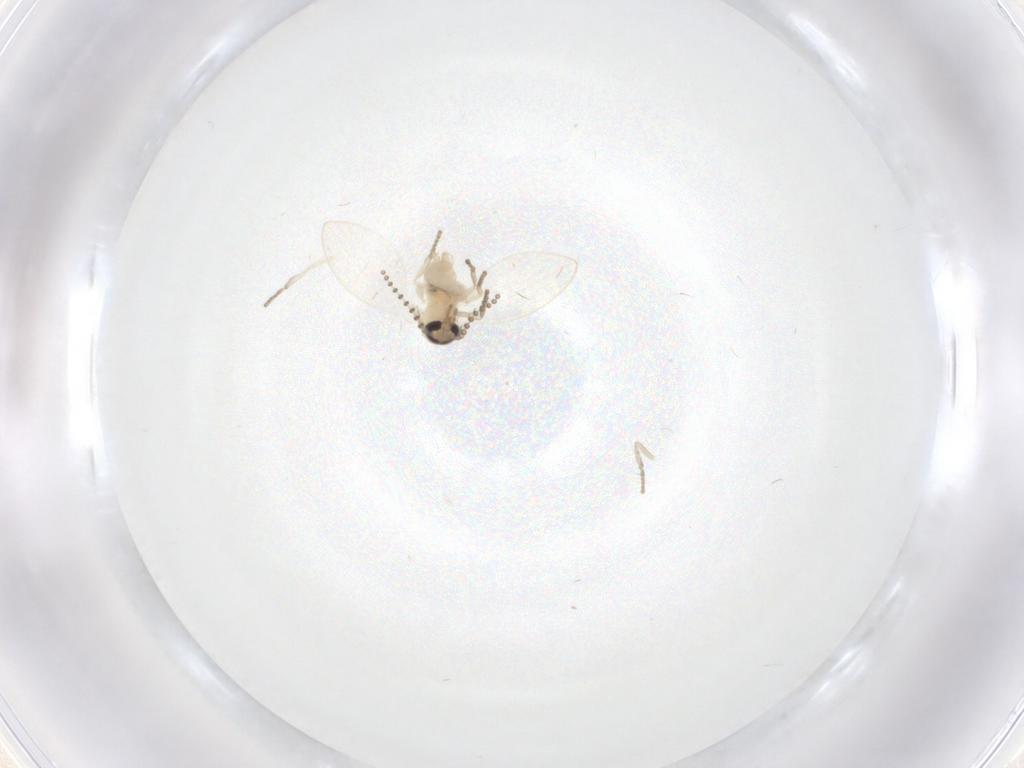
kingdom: Animalia
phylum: Arthropoda
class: Insecta
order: Diptera
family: Psychodidae
